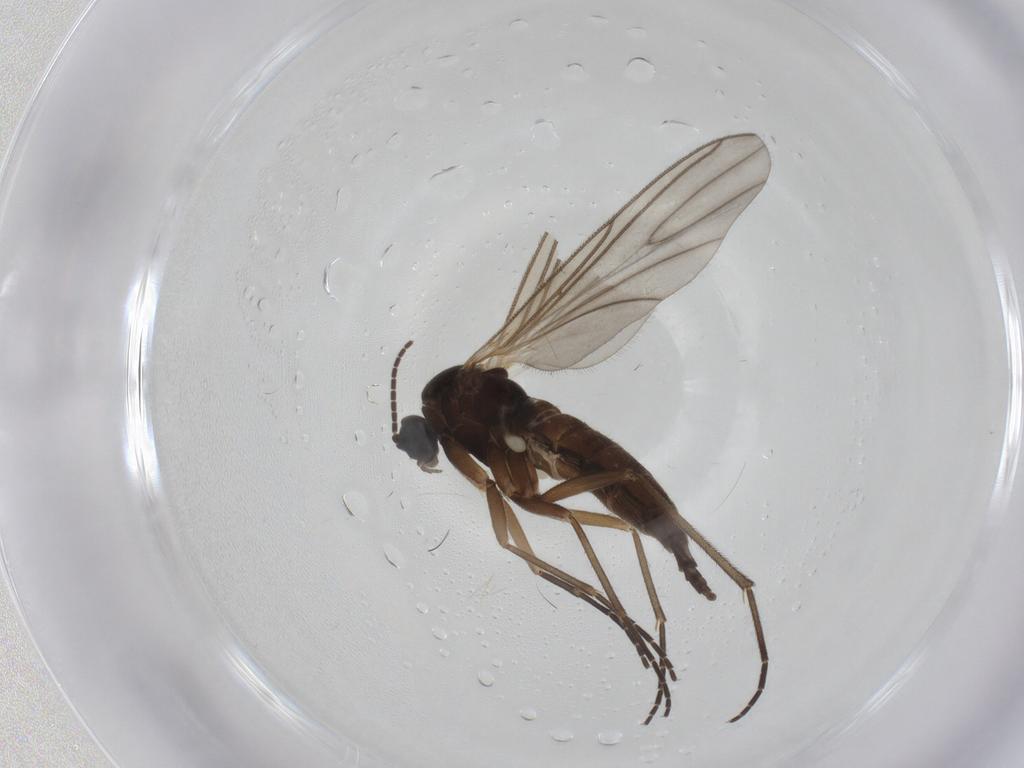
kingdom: Animalia
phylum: Arthropoda
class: Insecta
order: Diptera
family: Sciaridae
